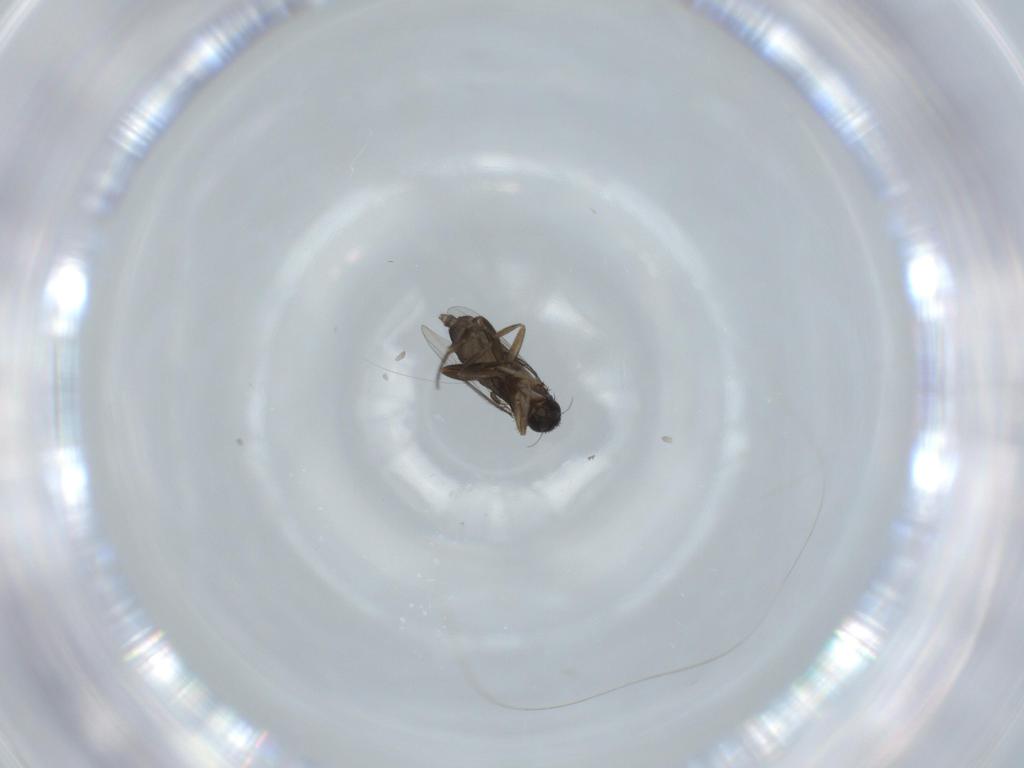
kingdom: Animalia
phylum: Arthropoda
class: Insecta
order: Diptera
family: Phoridae
